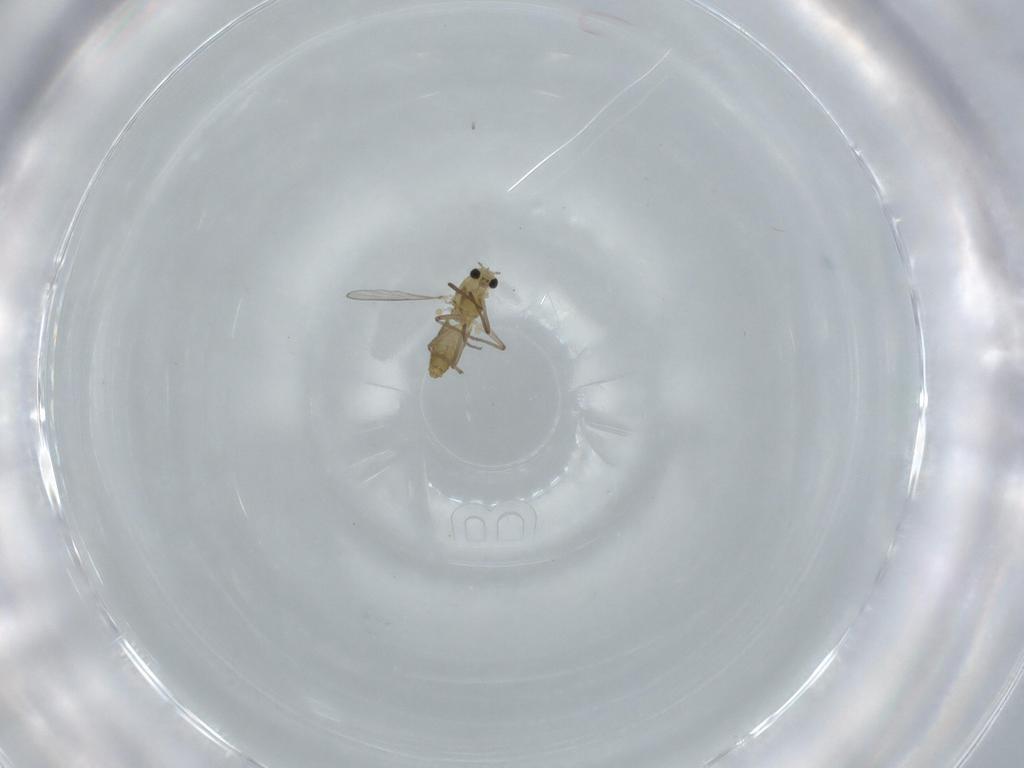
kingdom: Animalia
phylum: Arthropoda
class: Insecta
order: Diptera
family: Chironomidae
